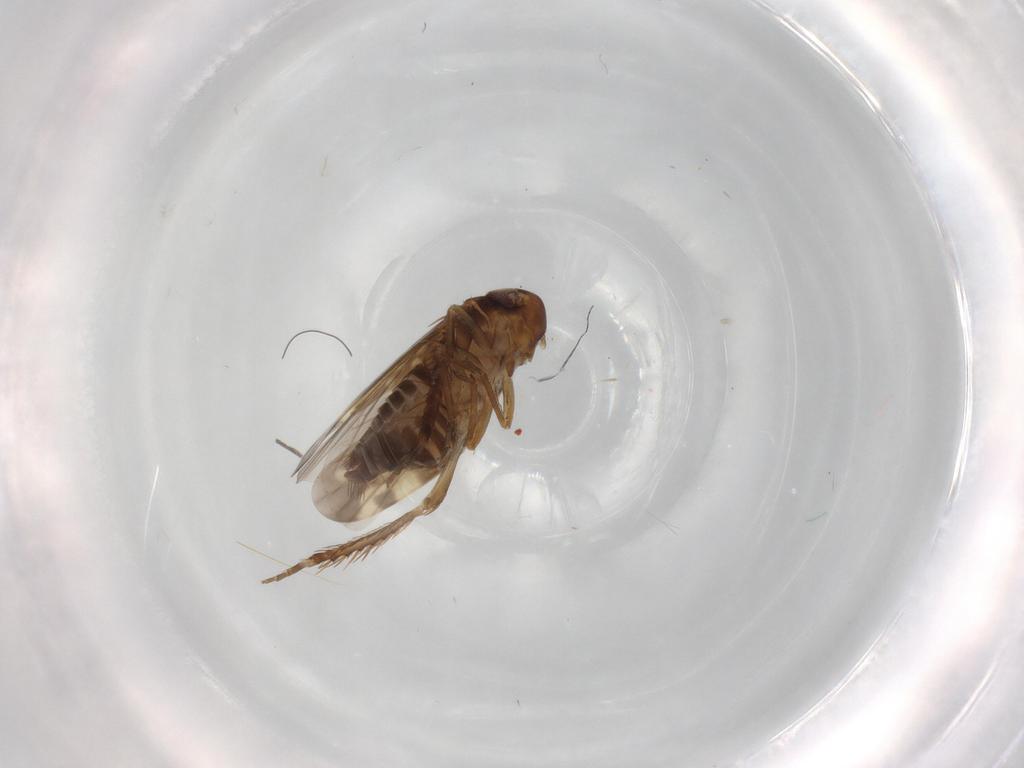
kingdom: Animalia
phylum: Arthropoda
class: Insecta
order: Hemiptera
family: Cicadellidae
